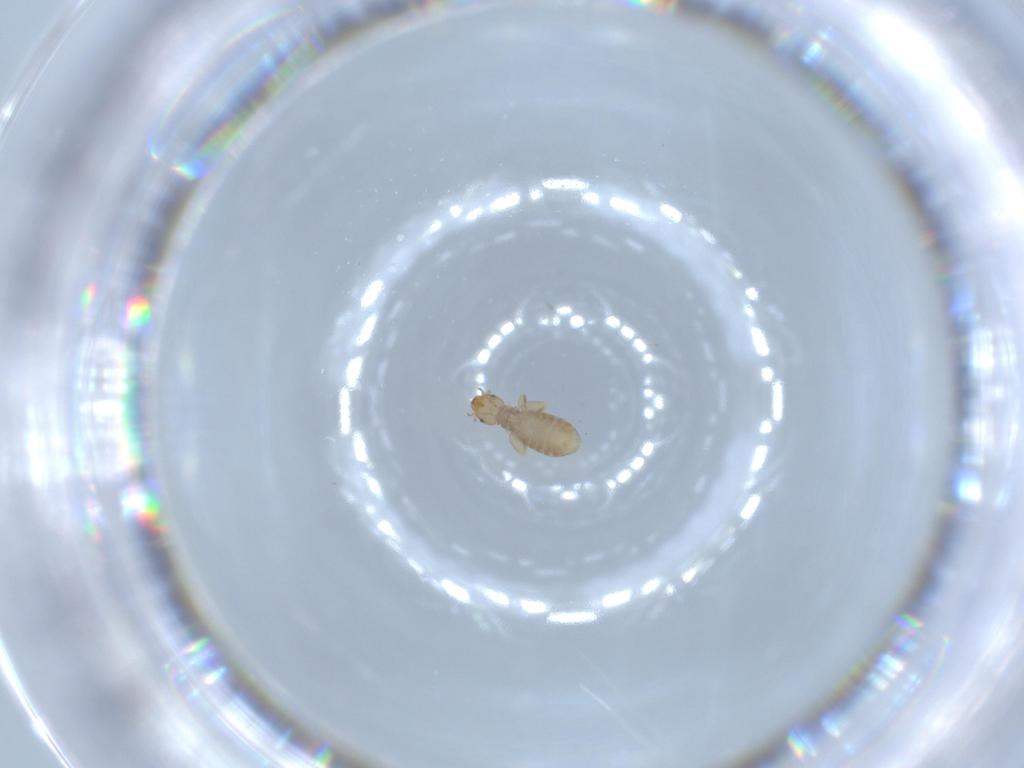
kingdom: Animalia
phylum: Arthropoda
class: Insecta
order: Psocodea
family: Liposcelididae
